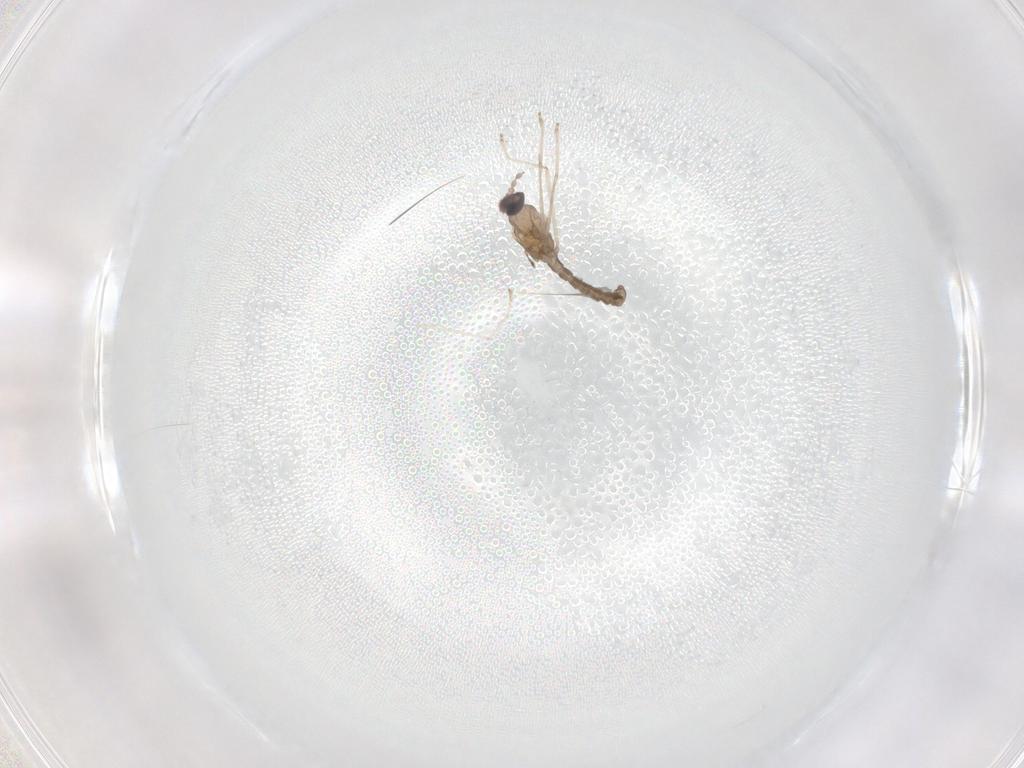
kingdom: Animalia
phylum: Arthropoda
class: Insecta
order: Diptera
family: Cecidomyiidae
